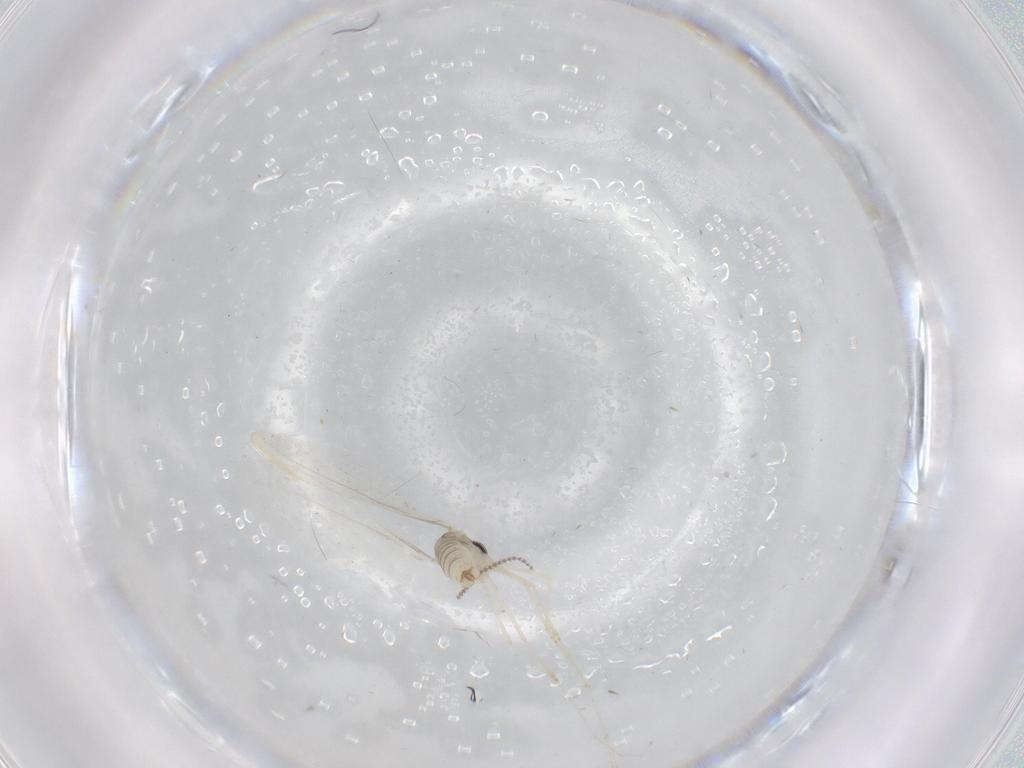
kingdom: Animalia
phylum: Arthropoda
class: Insecta
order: Diptera
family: Cecidomyiidae
